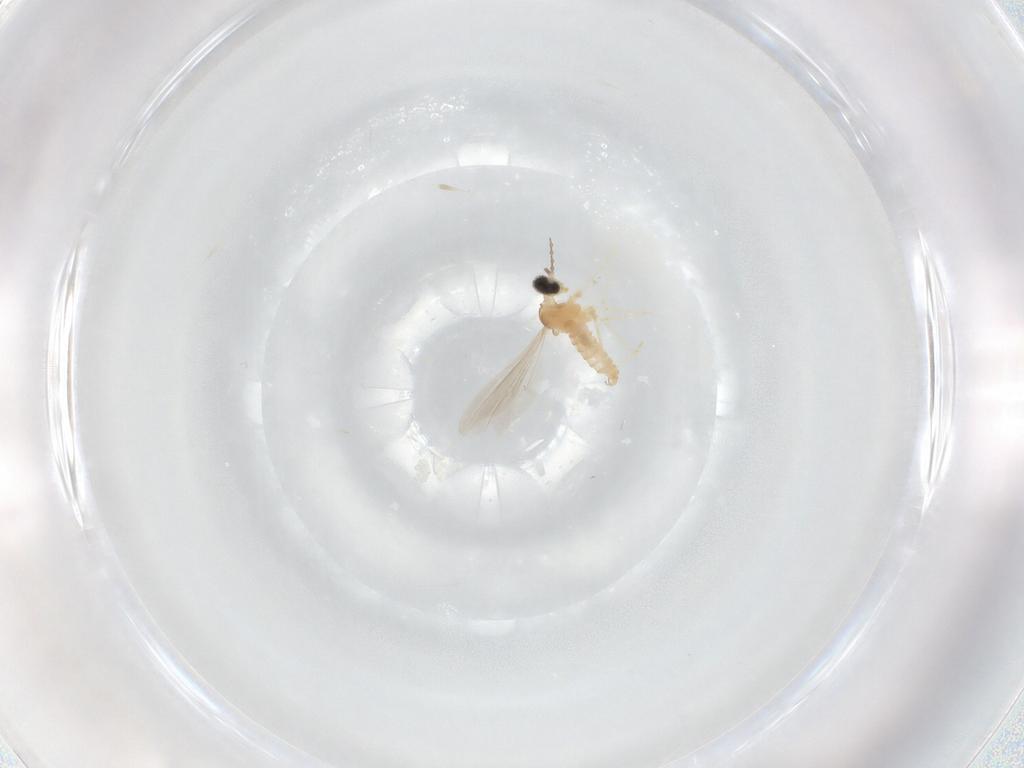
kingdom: Animalia
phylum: Arthropoda
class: Insecta
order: Diptera
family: Cecidomyiidae
